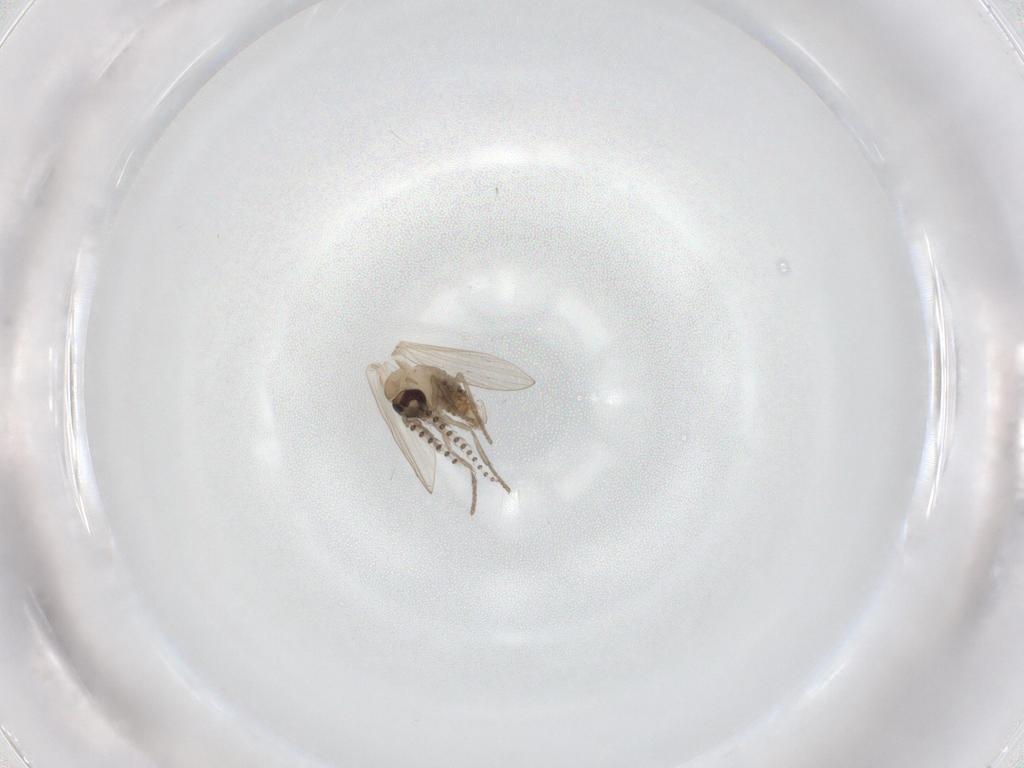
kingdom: Animalia
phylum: Arthropoda
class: Insecta
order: Diptera
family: Psychodidae
